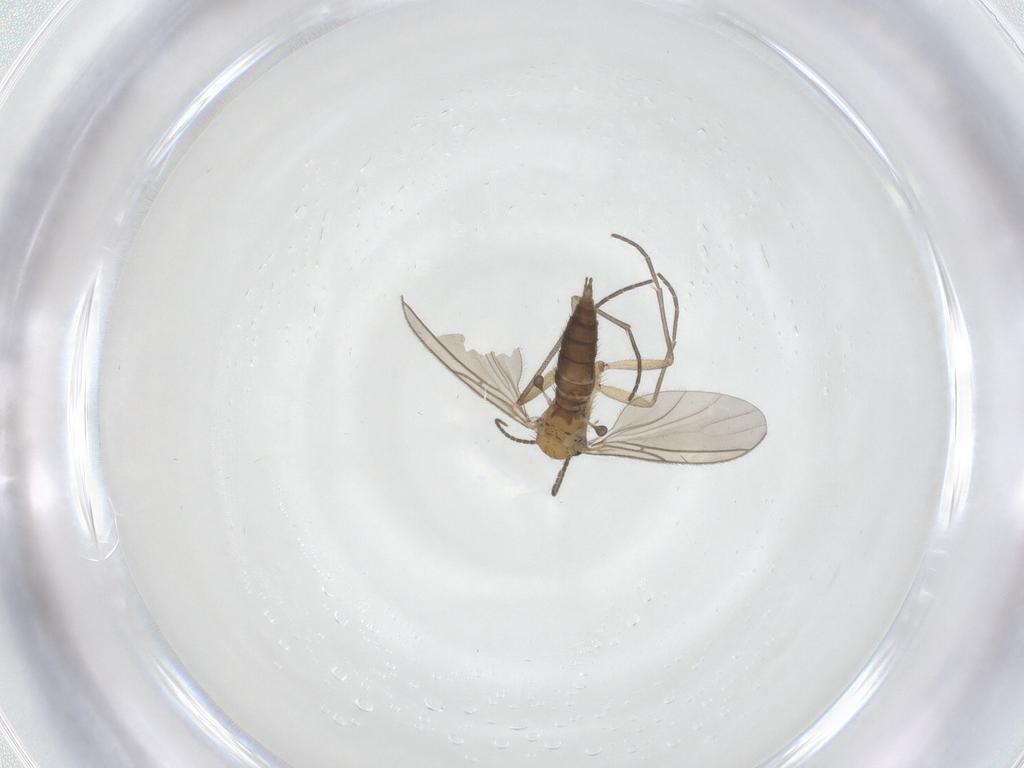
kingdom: Animalia
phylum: Arthropoda
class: Insecta
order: Diptera
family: Sciaridae
